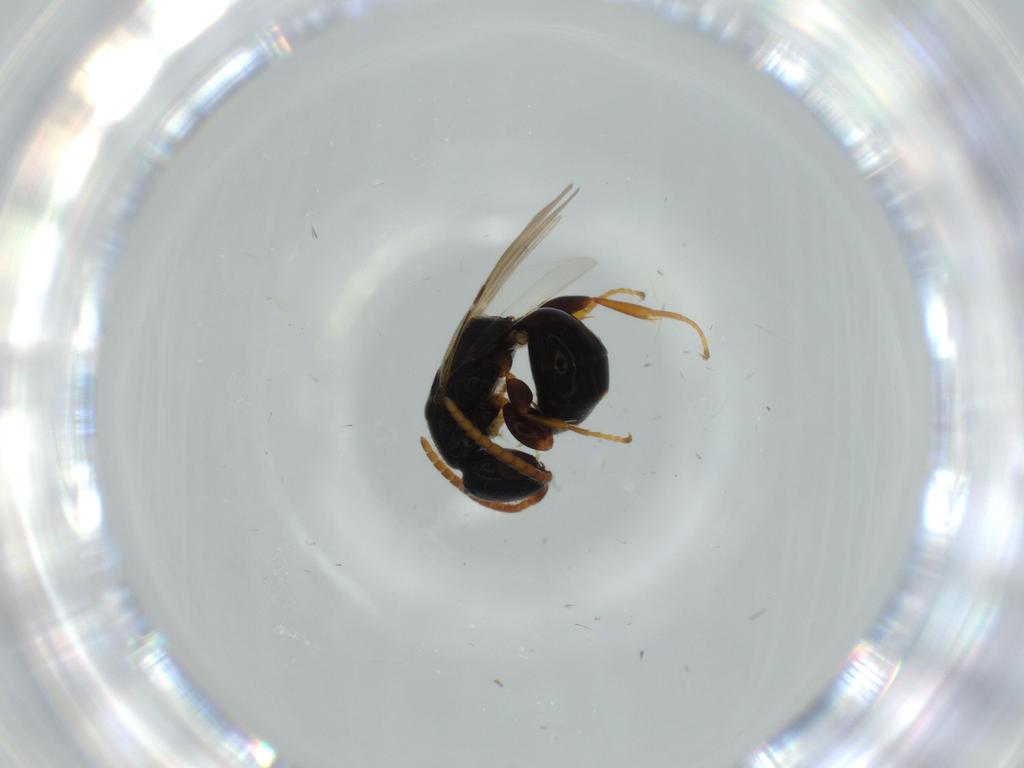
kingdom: Animalia
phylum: Arthropoda
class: Insecta
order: Hymenoptera
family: Bethylidae
